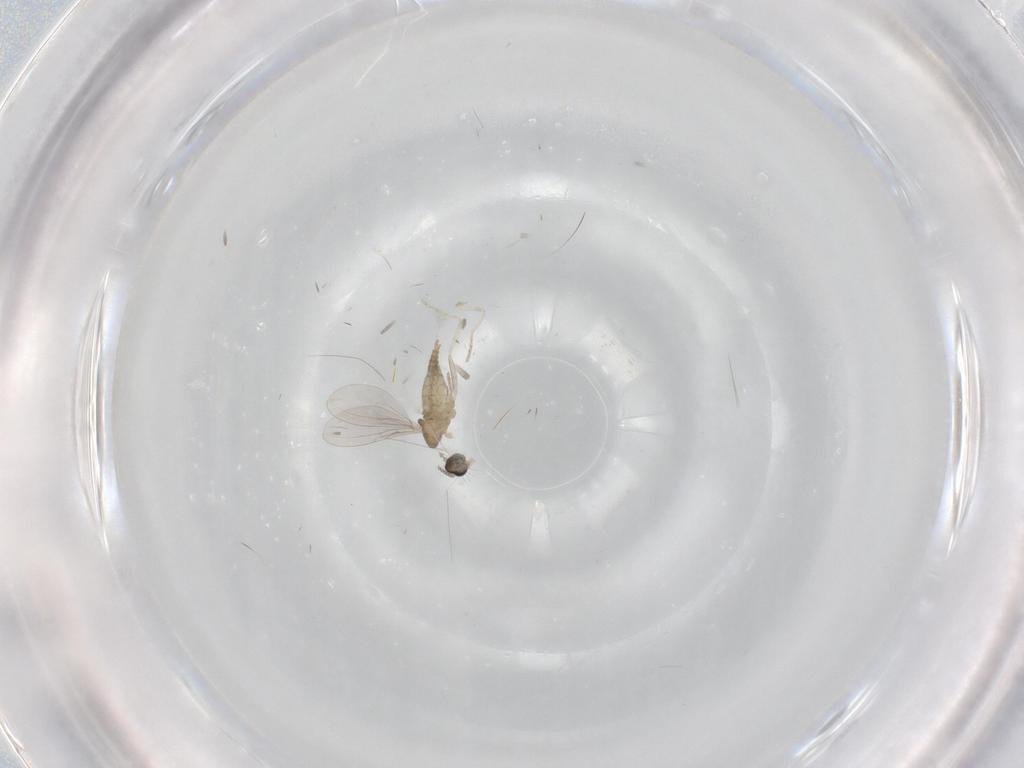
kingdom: Animalia
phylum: Arthropoda
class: Insecta
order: Diptera
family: Cecidomyiidae
